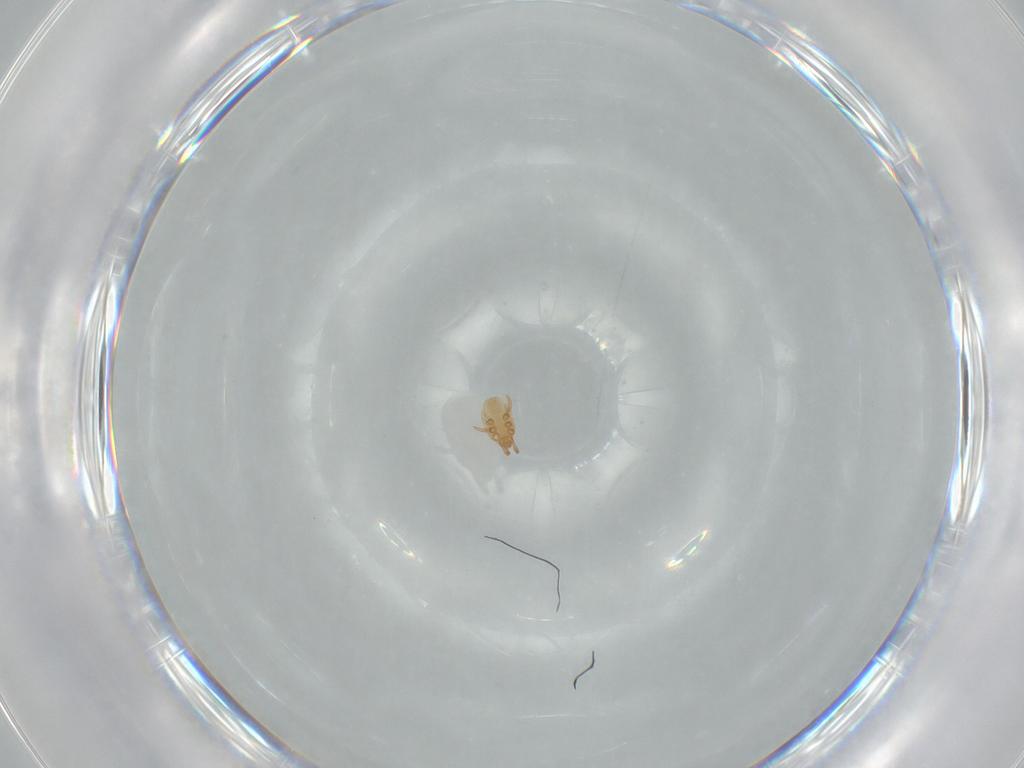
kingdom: Animalia
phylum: Arthropoda
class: Arachnida
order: Mesostigmata
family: Dinychidae
